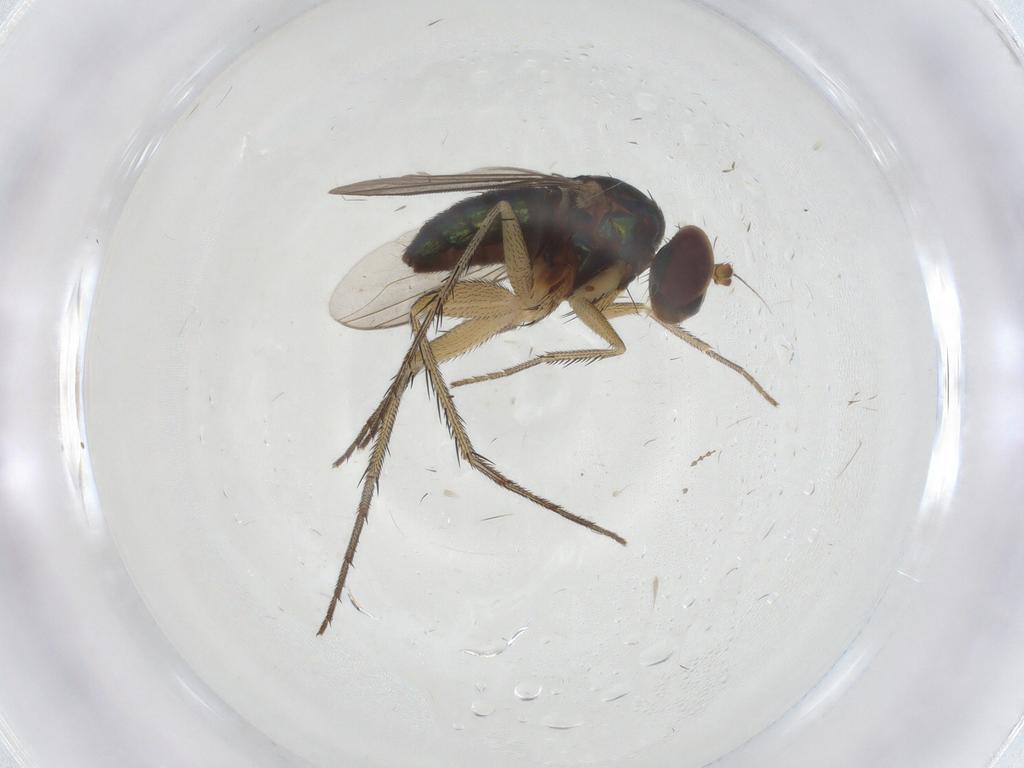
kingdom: Animalia
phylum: Arthropoda
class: Insecta
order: Diptera
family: Dolichopodidae
